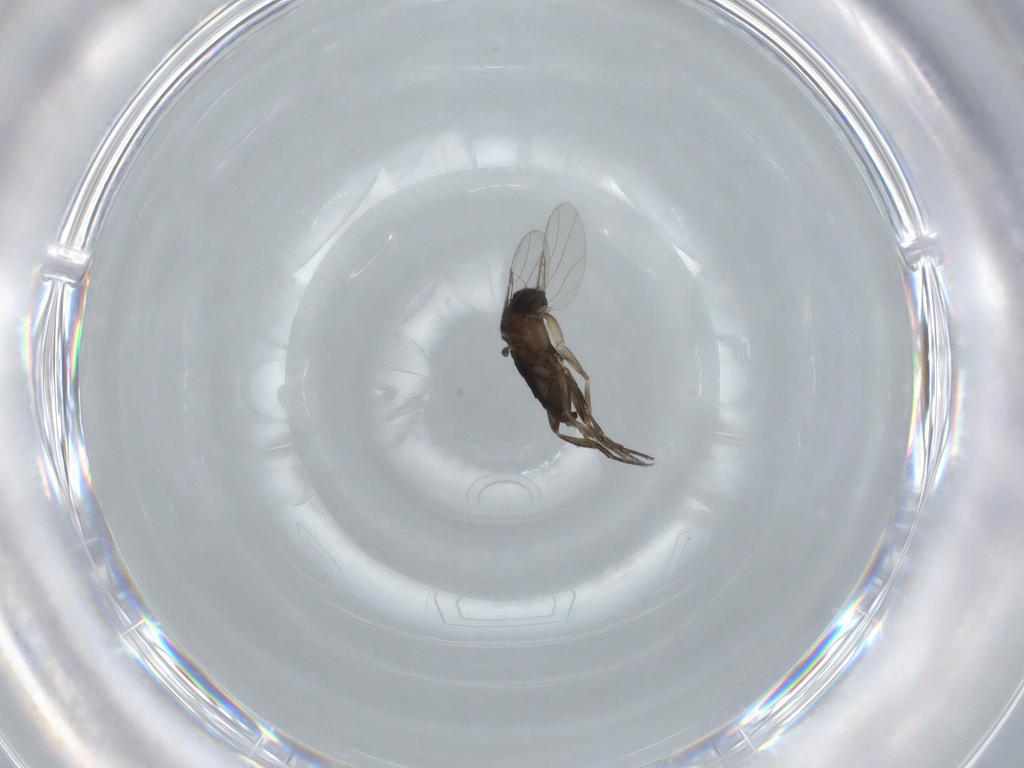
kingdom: Animalia
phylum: Arthropoda
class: Insecta
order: Diptera
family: Phoridae
